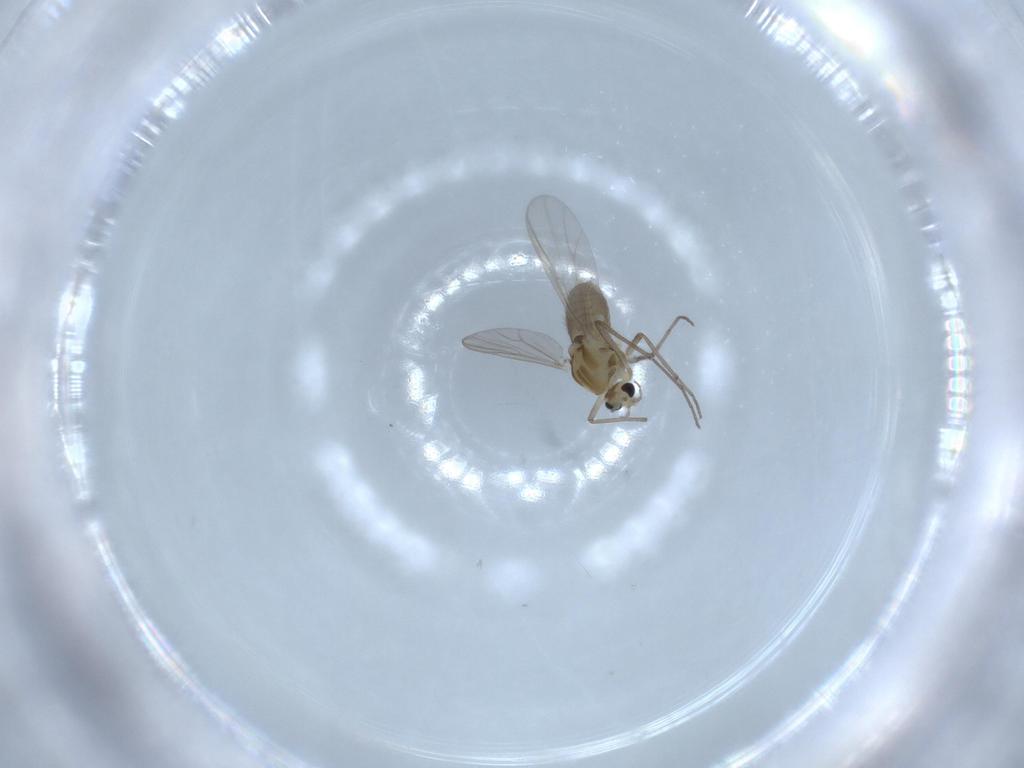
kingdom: Animalia
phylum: Arthropoda
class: Insecta
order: Diptera
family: Chironomidae
